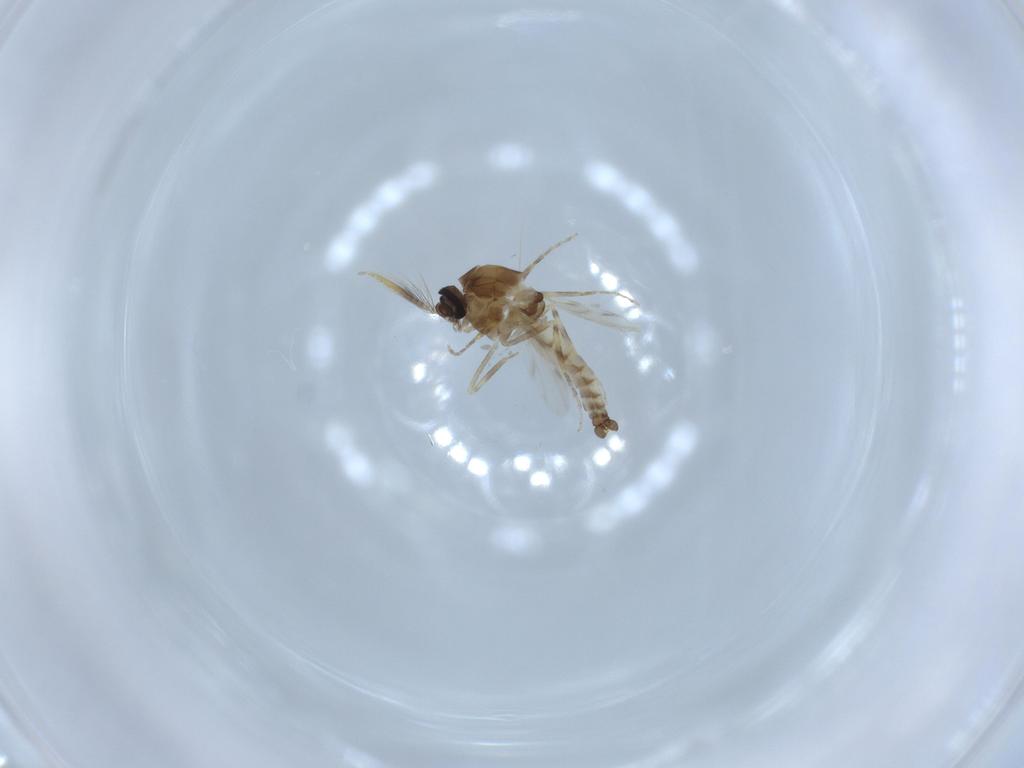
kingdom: Animalia
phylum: Arthropoda
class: Insecta
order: Diptera
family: Ceratopogonidae
